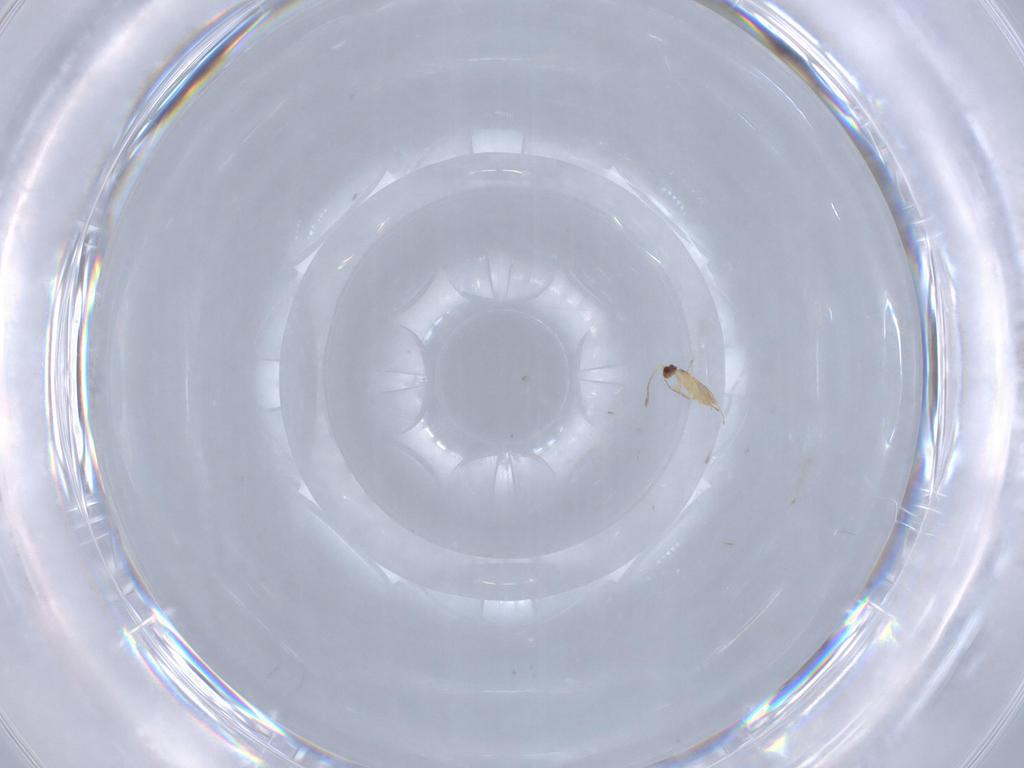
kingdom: Animalia
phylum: Arthropoda
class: Insecta
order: Hymenoptera
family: Mymaridae
